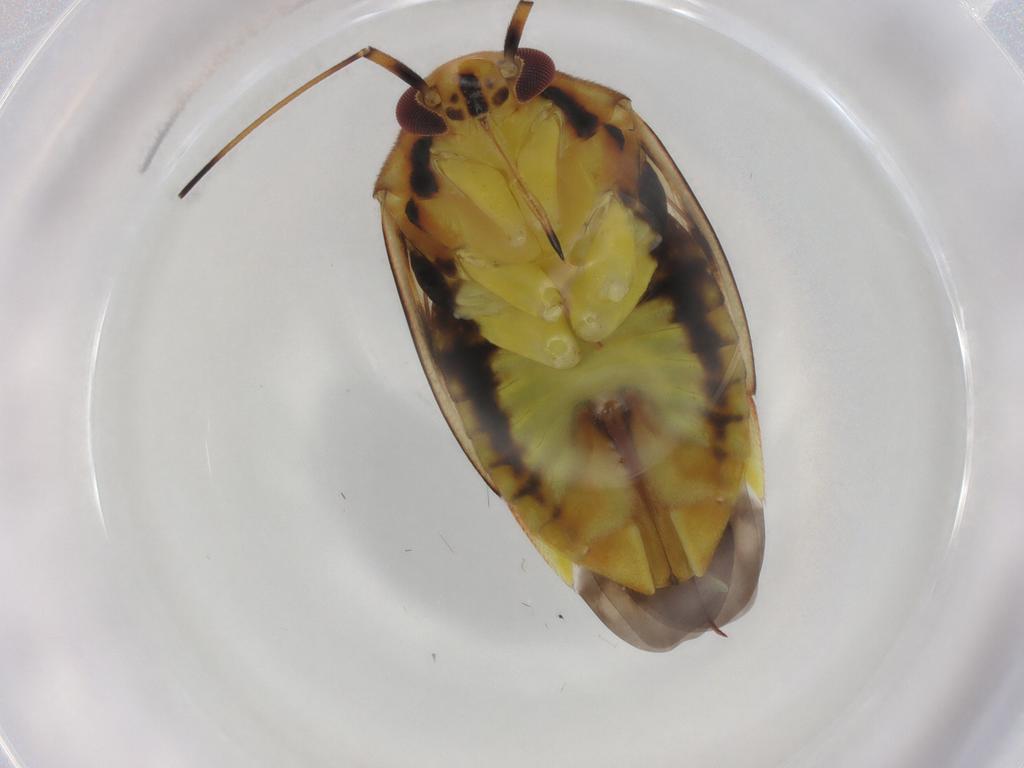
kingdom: Animalia
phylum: Arthropoda
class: Insecta
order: Hemiptera
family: Miridae
